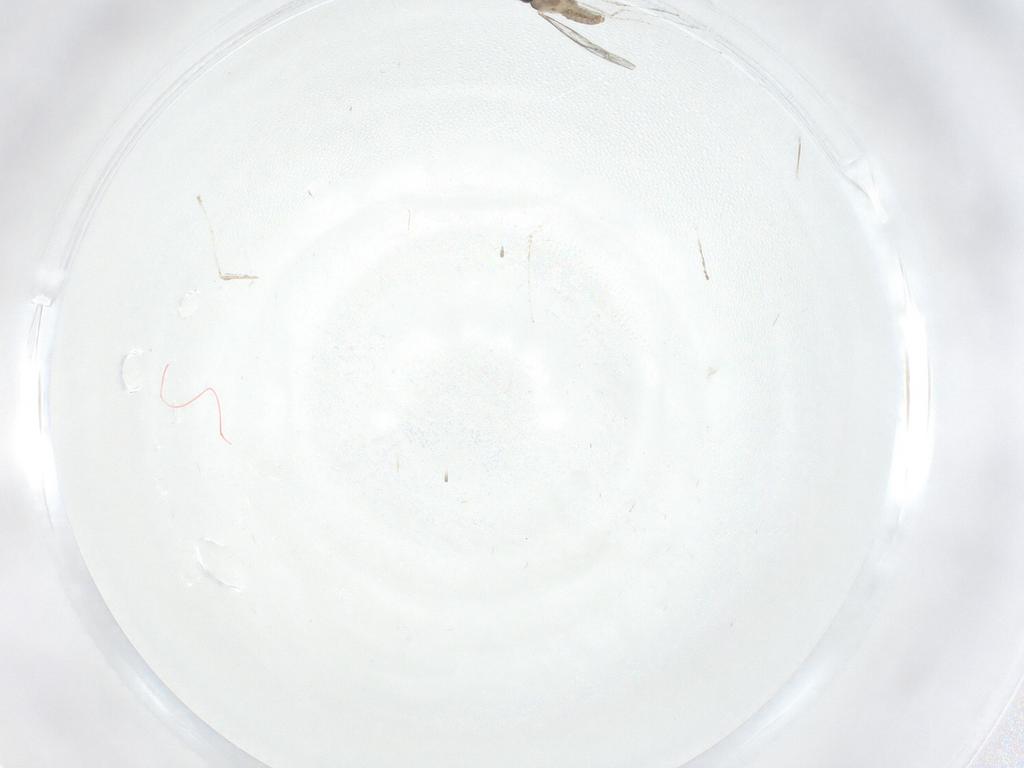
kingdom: Animalia
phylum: Arthropoda
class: Insecta
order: Diptera
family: Cecidomyiidae
